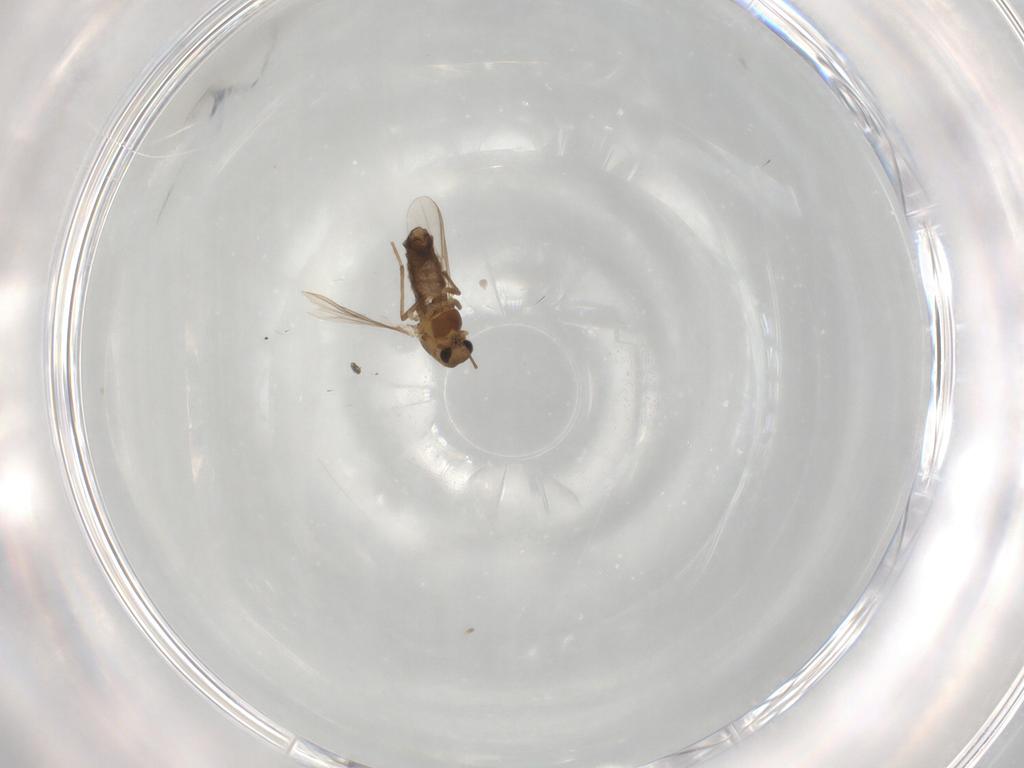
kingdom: Animalia
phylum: Arthropoda
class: Insecta
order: Diptera
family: Chironomidae
